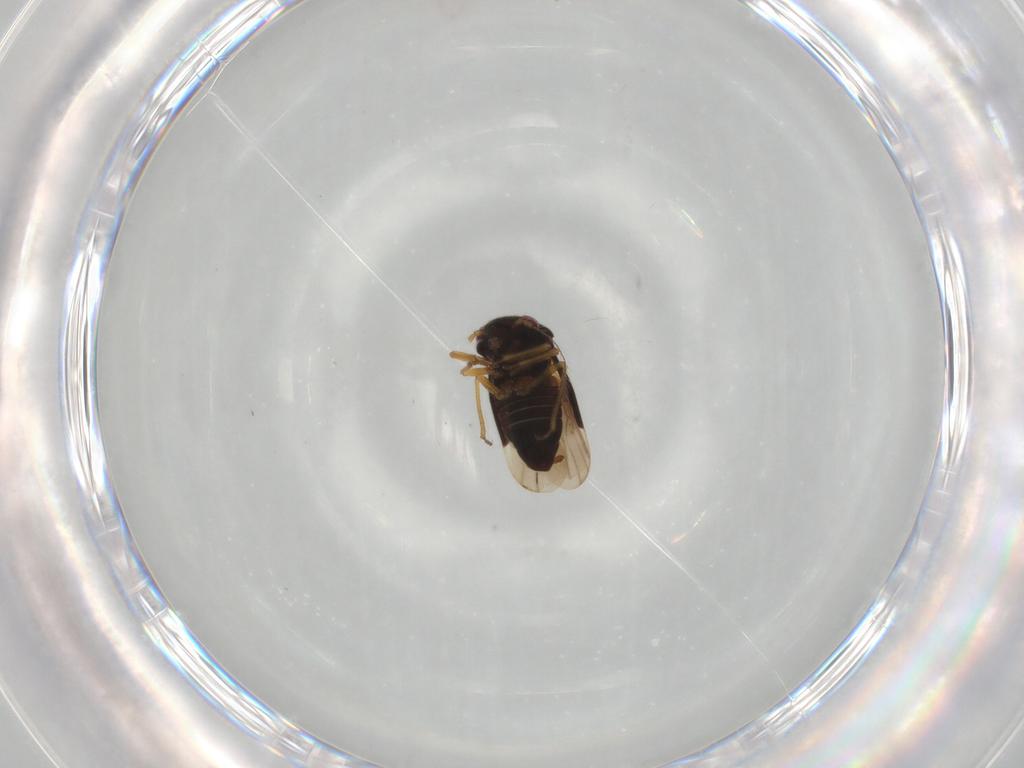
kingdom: Animalia
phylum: Arthropoda
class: Insecta
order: Hemiptera
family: Schizopteridae
